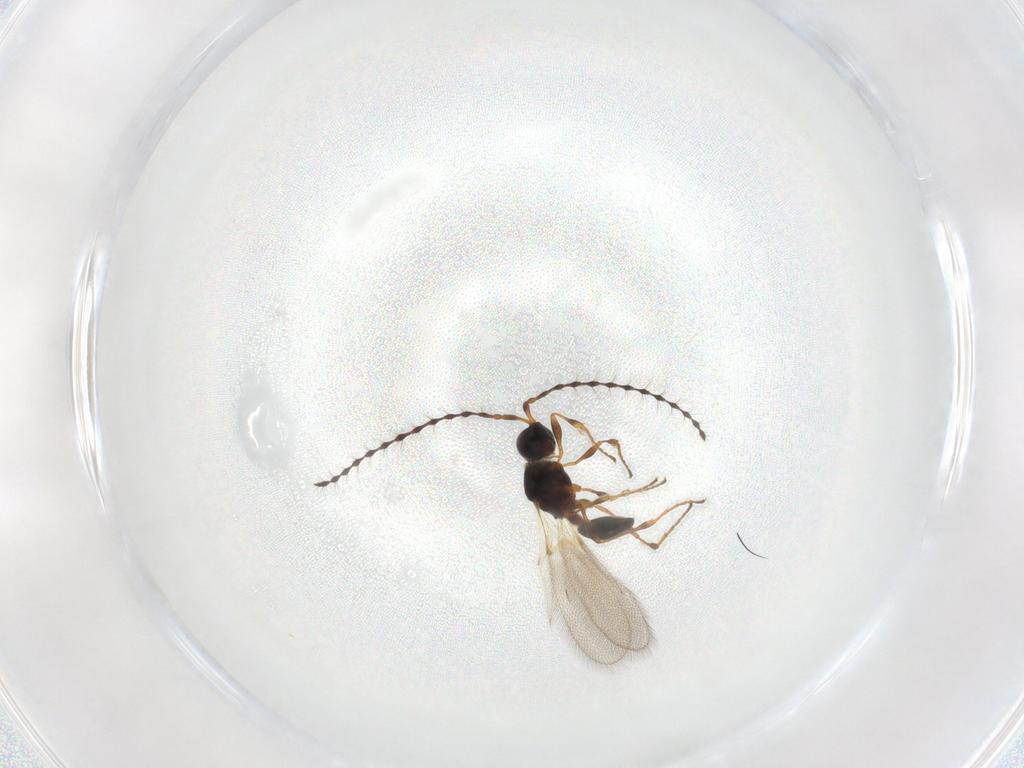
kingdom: Animalia
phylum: Arthropoda
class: Insecta
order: Hymenoptera
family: Diapriidae
